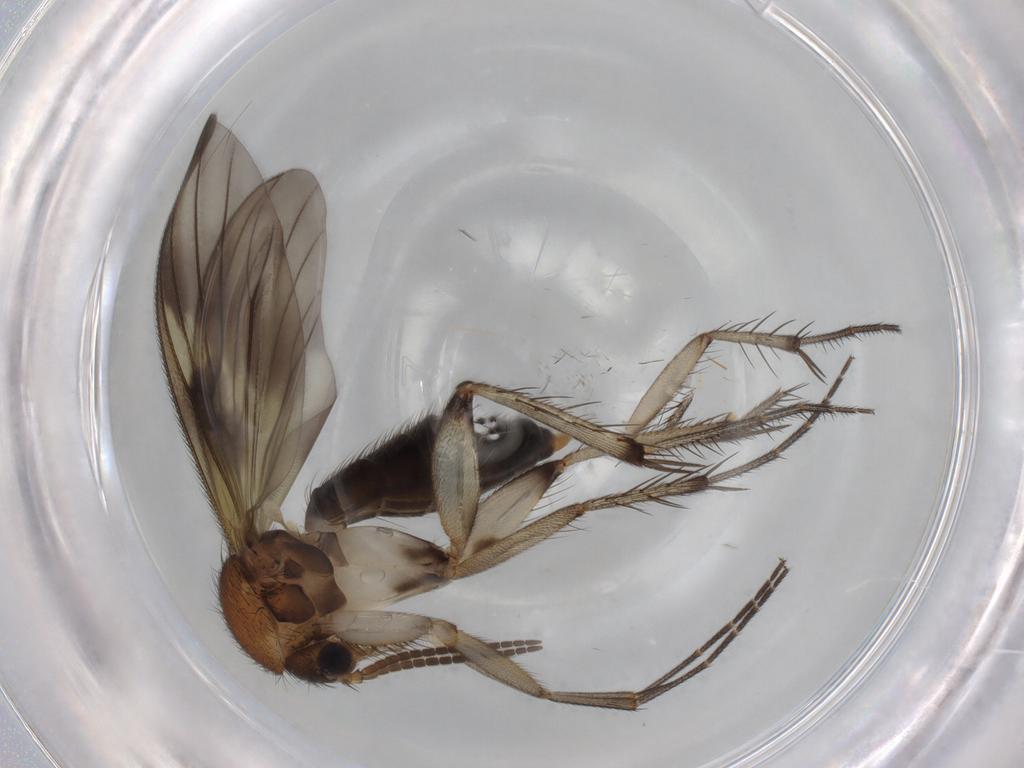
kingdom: Animalia
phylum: Arthropoda
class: Insecta
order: Diptera
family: Mycetophilidae
